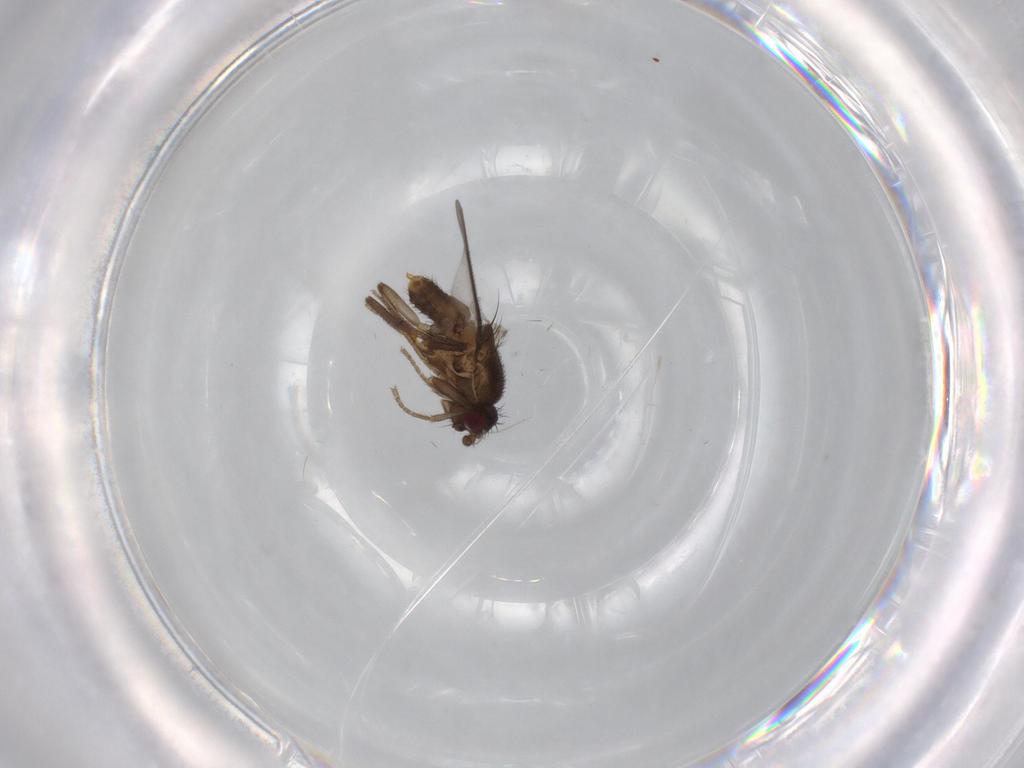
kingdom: Animalia
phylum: Arthropoda
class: Insecta
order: Diptera
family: Sphaeroceridae
